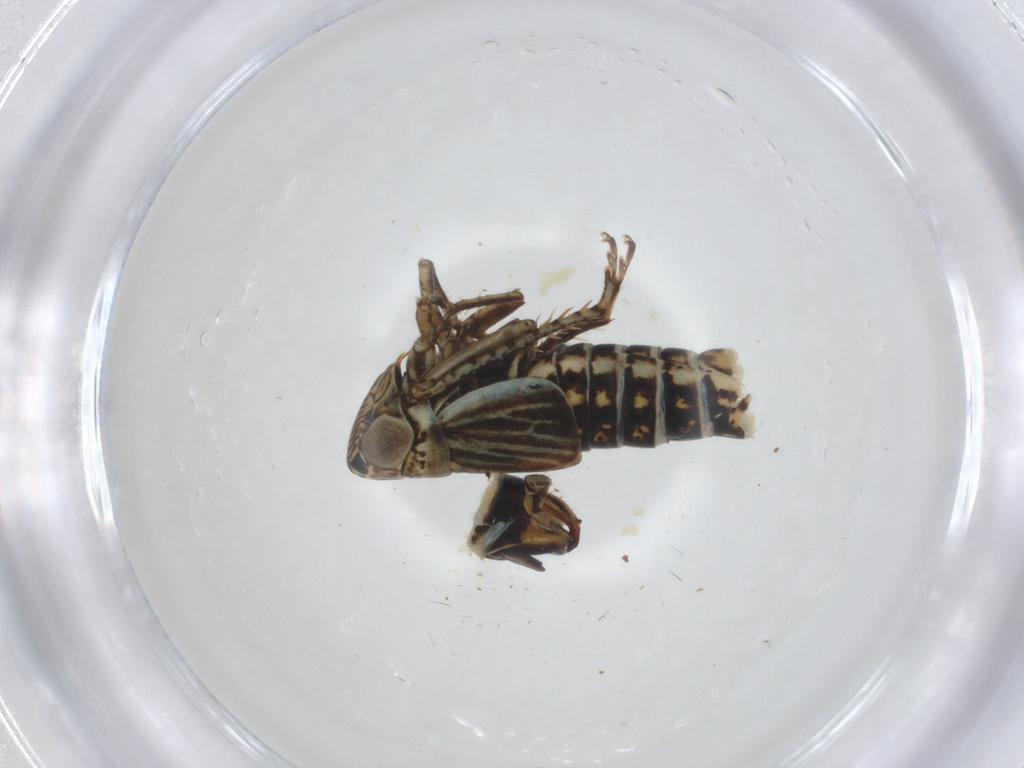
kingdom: Animalia
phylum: Arthropoda
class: Insecta
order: Hemiptera
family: Cicadellidae
